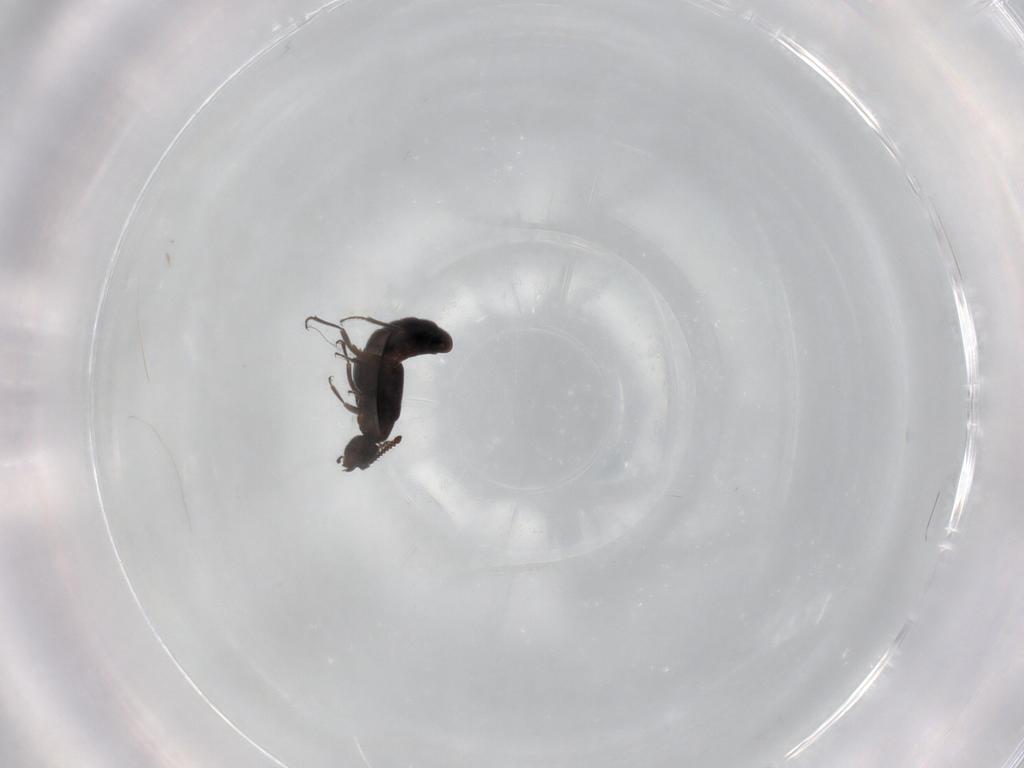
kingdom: Animalia
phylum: Arthropoda
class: Insecta
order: Coleoptera
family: Staphylinidae
